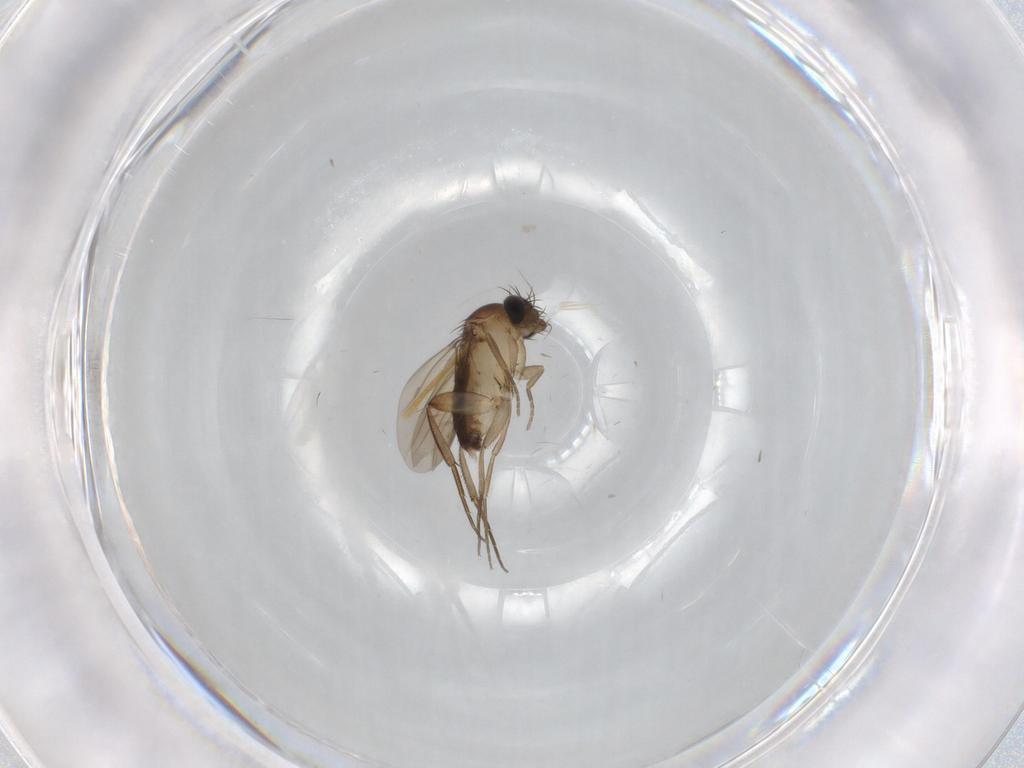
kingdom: Animalia
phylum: Arthropoda
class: Insecta
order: Diptera
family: Phoridae
